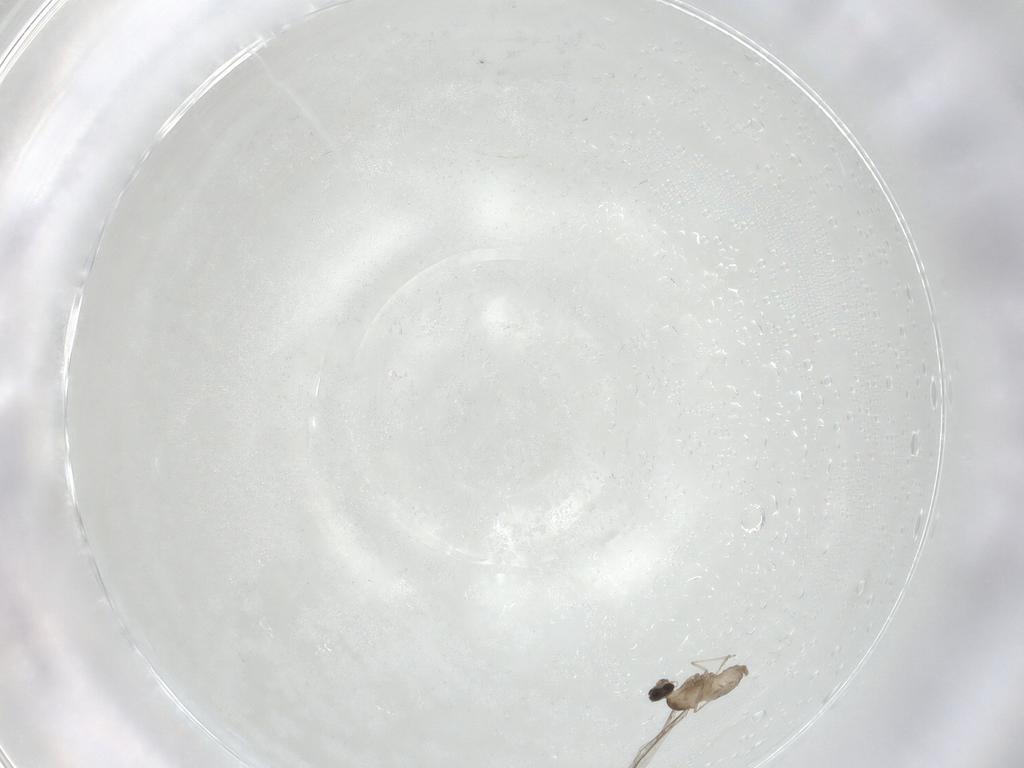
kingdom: Animalia
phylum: Arthropoda
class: Insecta
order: Diptera
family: Cecidomyiidae
